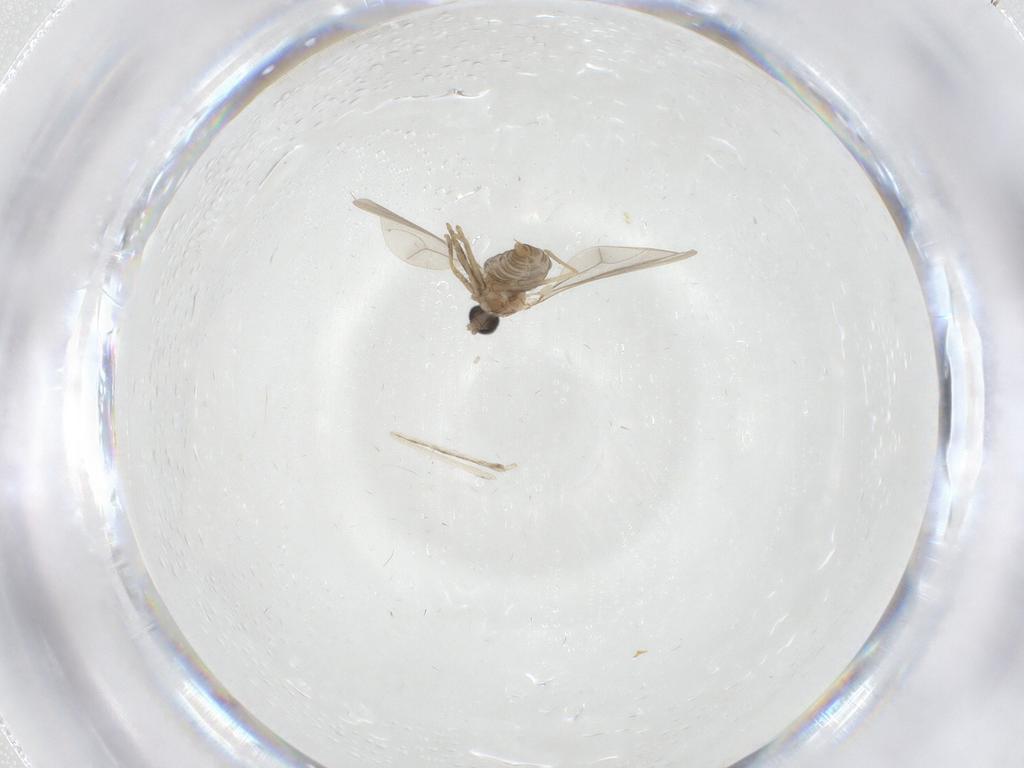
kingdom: Animalia
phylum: Arthropoda
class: Insecta
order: Diptera
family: Cecidomyiidae
